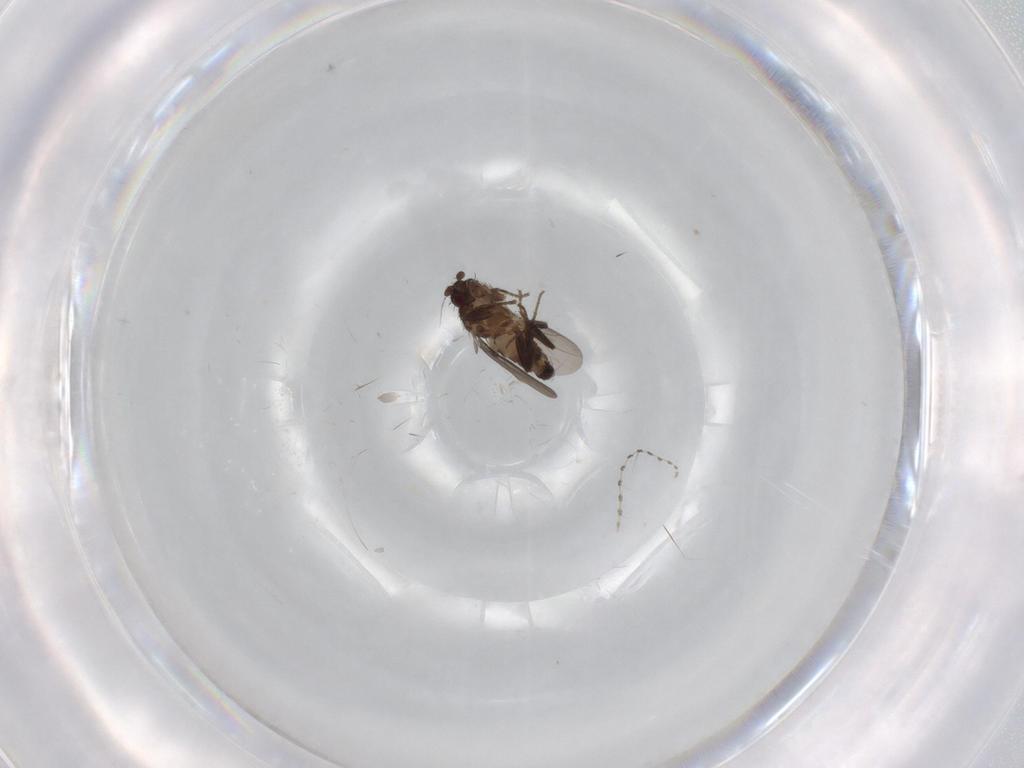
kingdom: Animalia
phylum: Arthropoda
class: Insecta
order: Diptera
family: Sphaeroceridae
